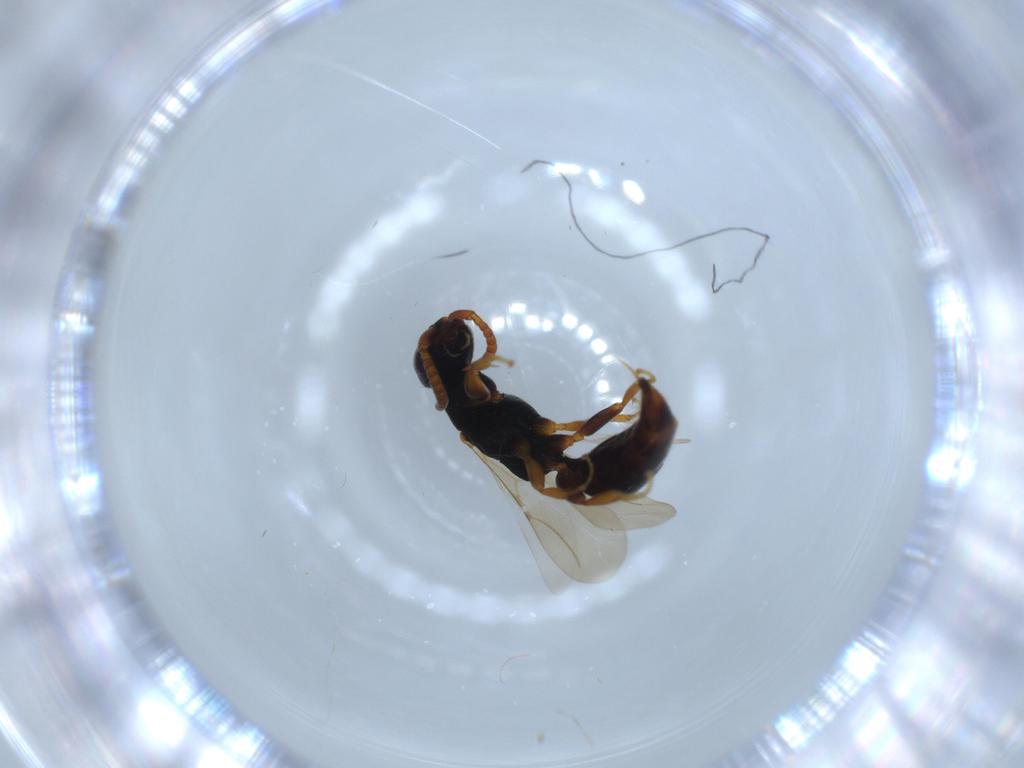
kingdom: Animalia
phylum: Arthropoda
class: Insecta
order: Hymenoptera
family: Bethylidae
